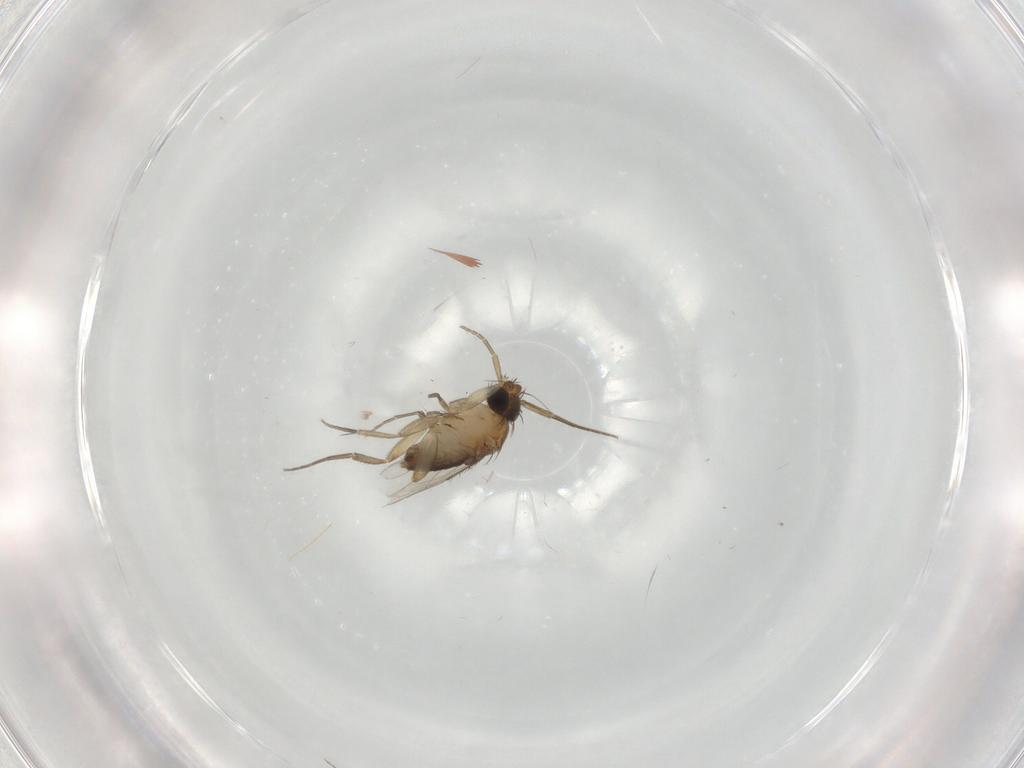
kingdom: Animalia
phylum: Arthropoda
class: Insecta
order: Diptera
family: Phoridae
